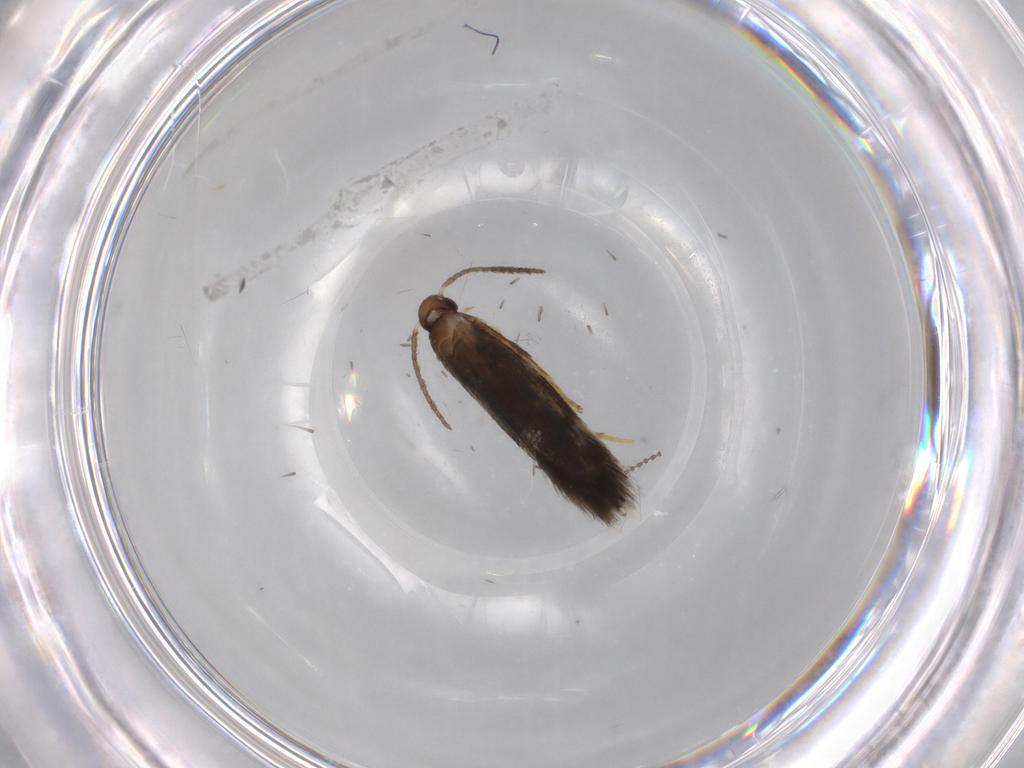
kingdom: Animalia
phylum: Arthropoda
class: Insecta
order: Lepidoptera
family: Heliozelidae
